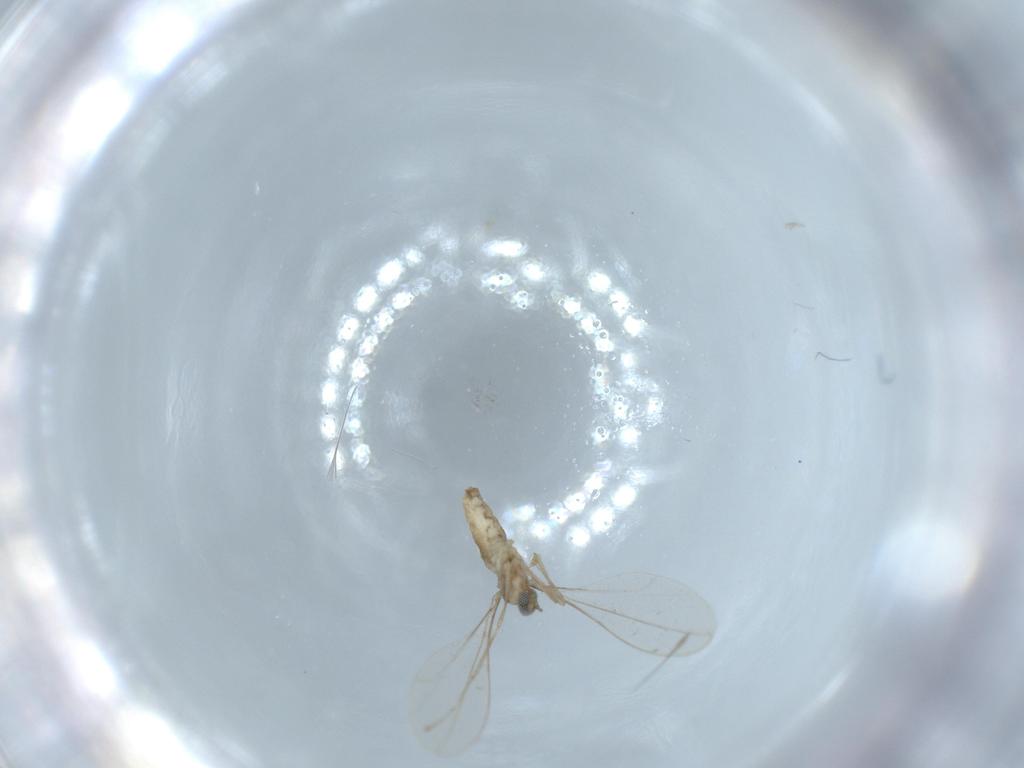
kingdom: Animalia
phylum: Arthropoda
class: Insecta
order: Diptera
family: Cecidomyiidae
